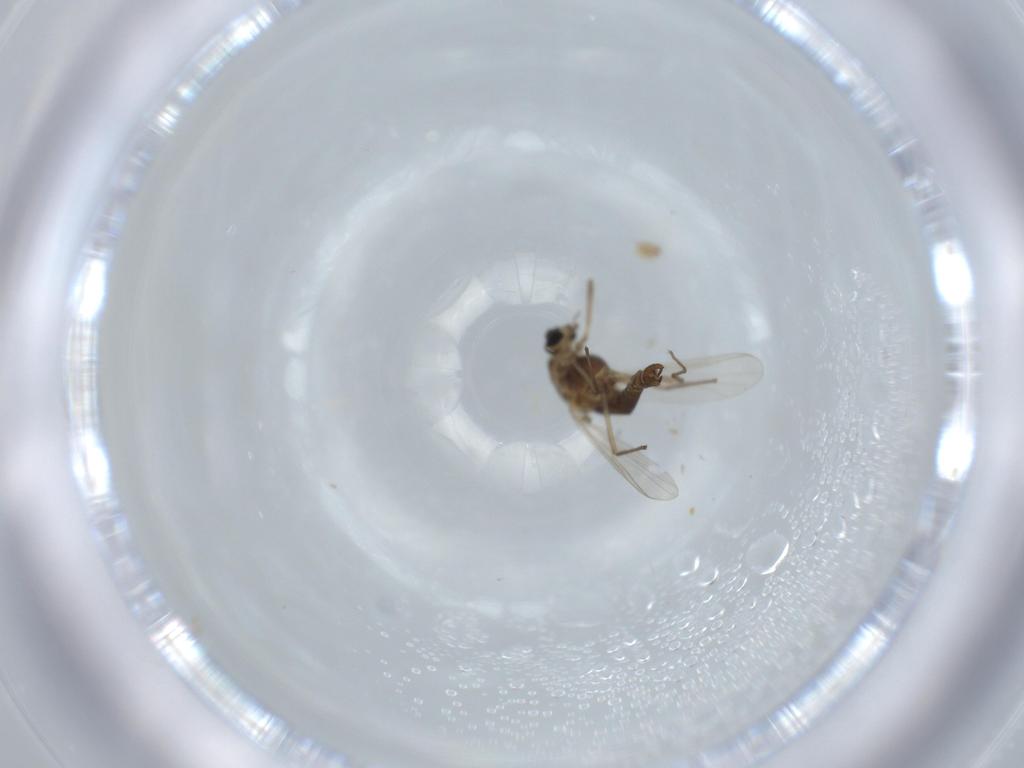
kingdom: Animalia
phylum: Arthropoda
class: Insecta
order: Diptera
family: Chironomidae
